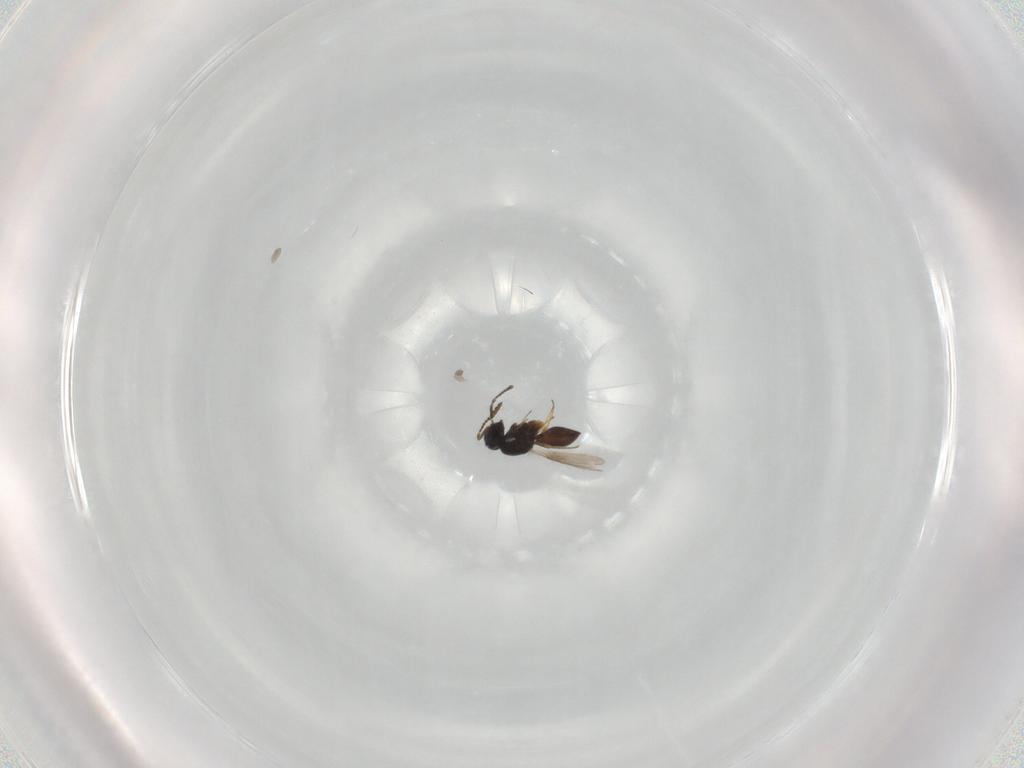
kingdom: Animalia
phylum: Arthropoda
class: Insecta
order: Hymenoptera
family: Scelionidae
